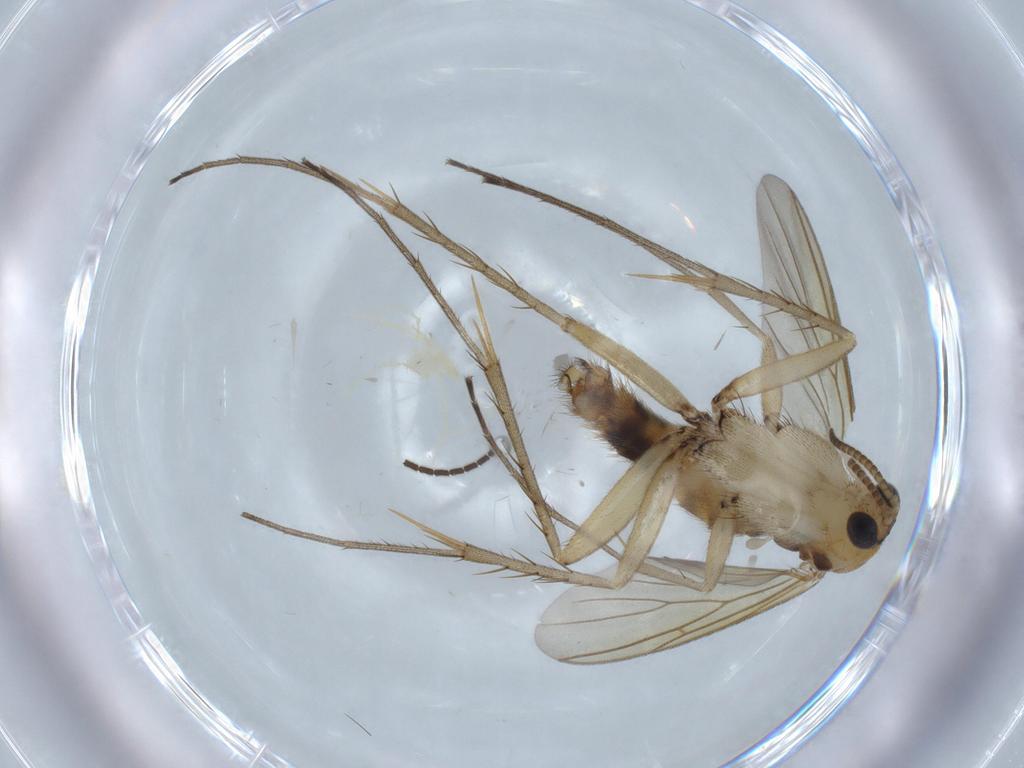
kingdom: Animalia
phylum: Arthropoda
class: Insecta
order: Diptera
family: Mycetophilidae
